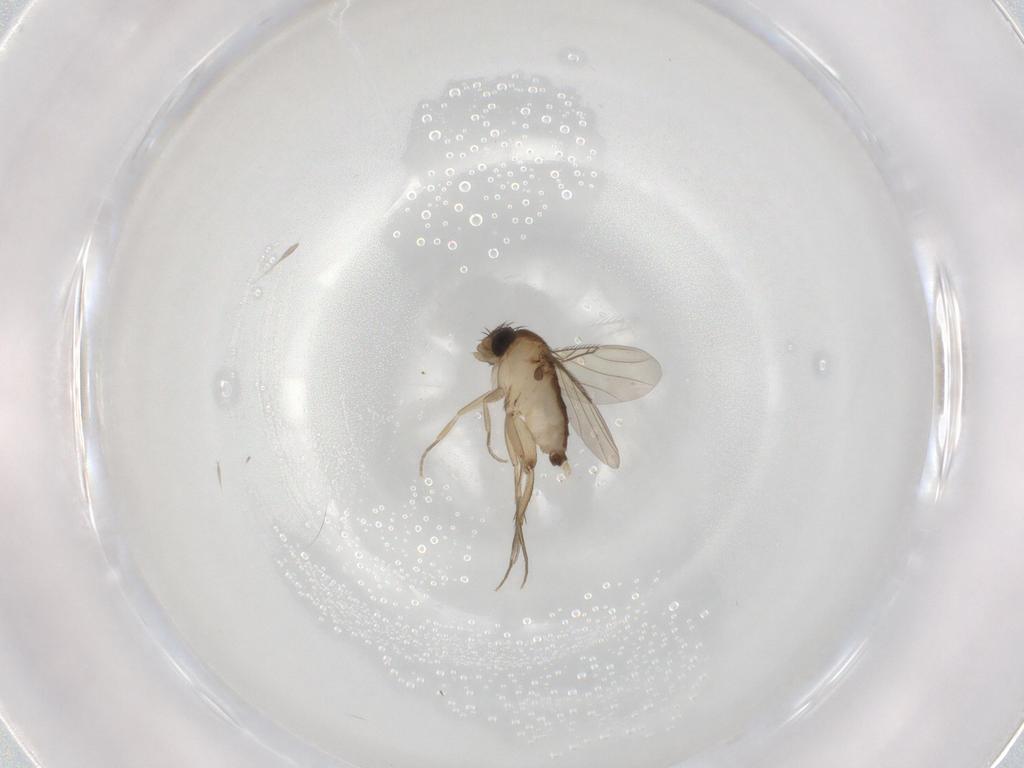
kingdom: Animalia
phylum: Arthropoda
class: Insecta
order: Diptera
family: Phoridae
